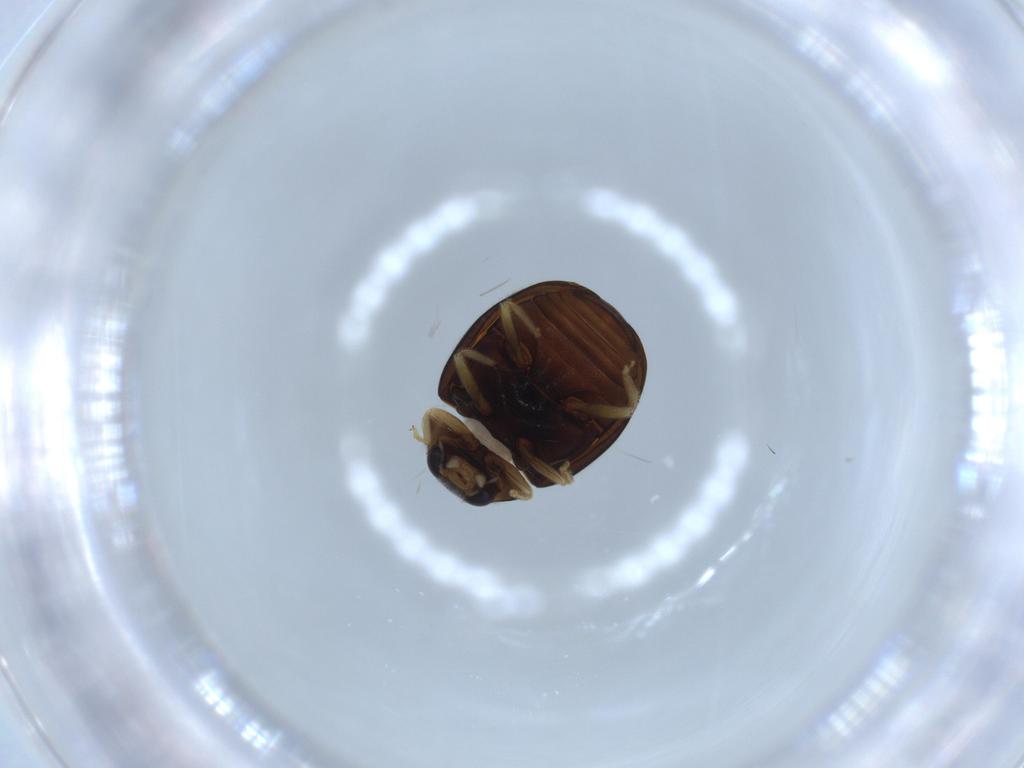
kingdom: Animalia
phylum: Arthropoda
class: Insecta
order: Coleoptera
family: Coccinellidae
